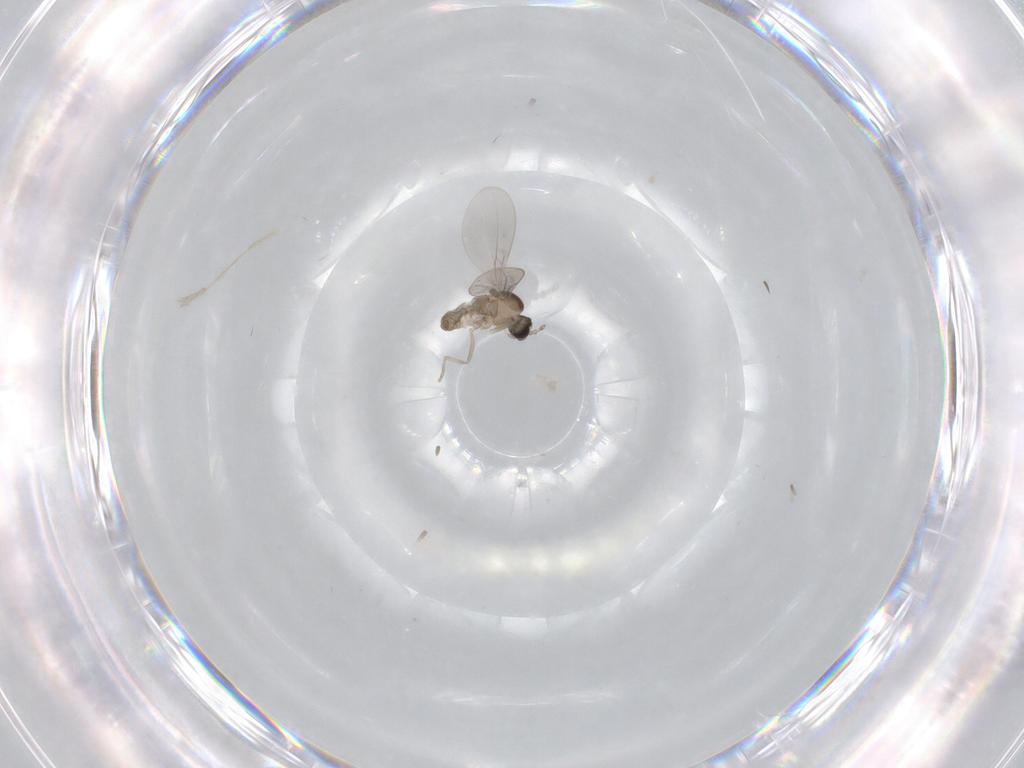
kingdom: Animalia
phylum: Arthropoda
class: Insecta
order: Diptera
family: Cecidomyiidae
